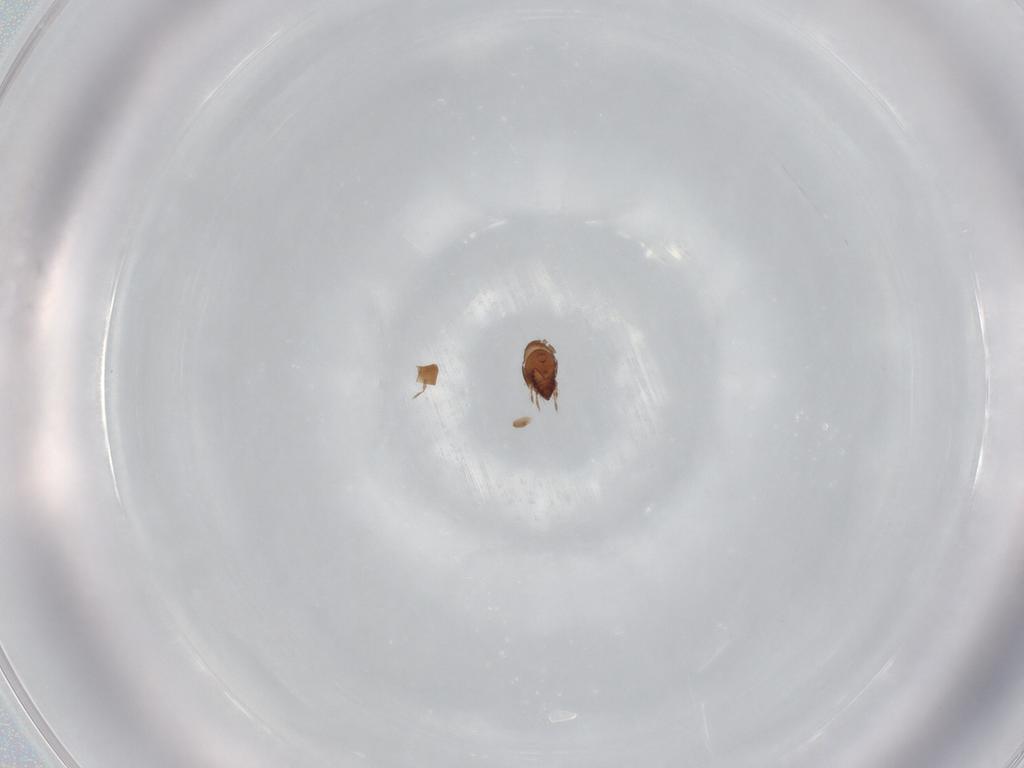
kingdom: Animalia
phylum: Arthropoda
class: Arachnida
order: Sarcoptiformes
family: Ceratozetidae
